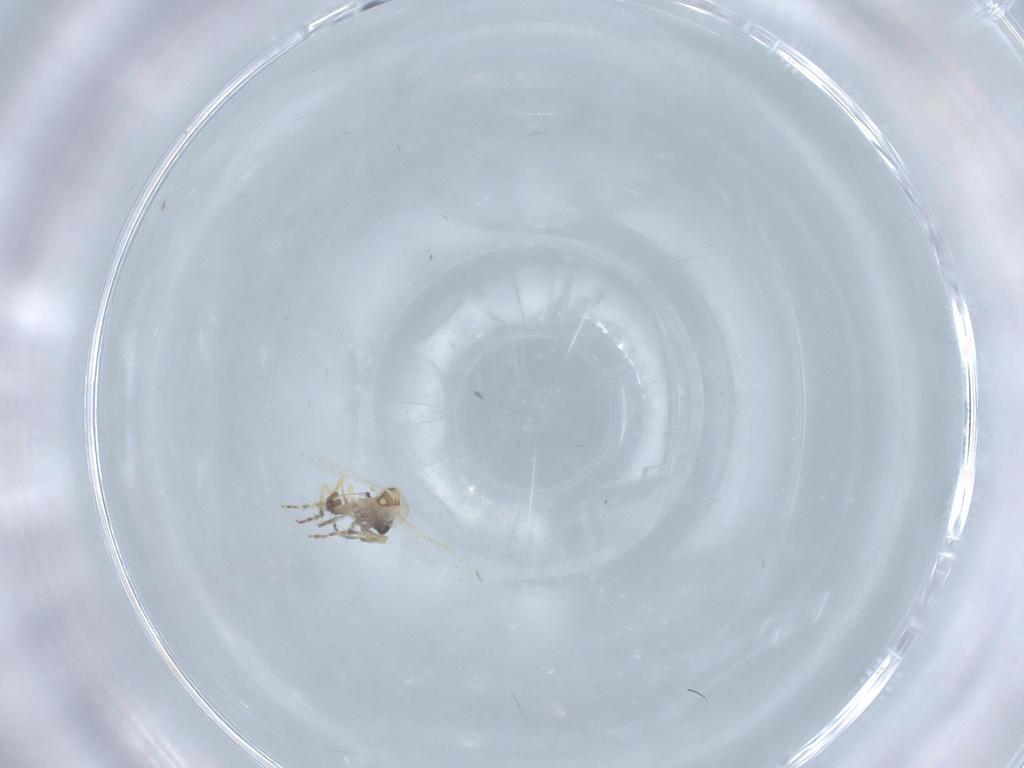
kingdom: Animalia
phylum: Arthropoda
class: Insecta
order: Diptera
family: Ceratopogonidae
